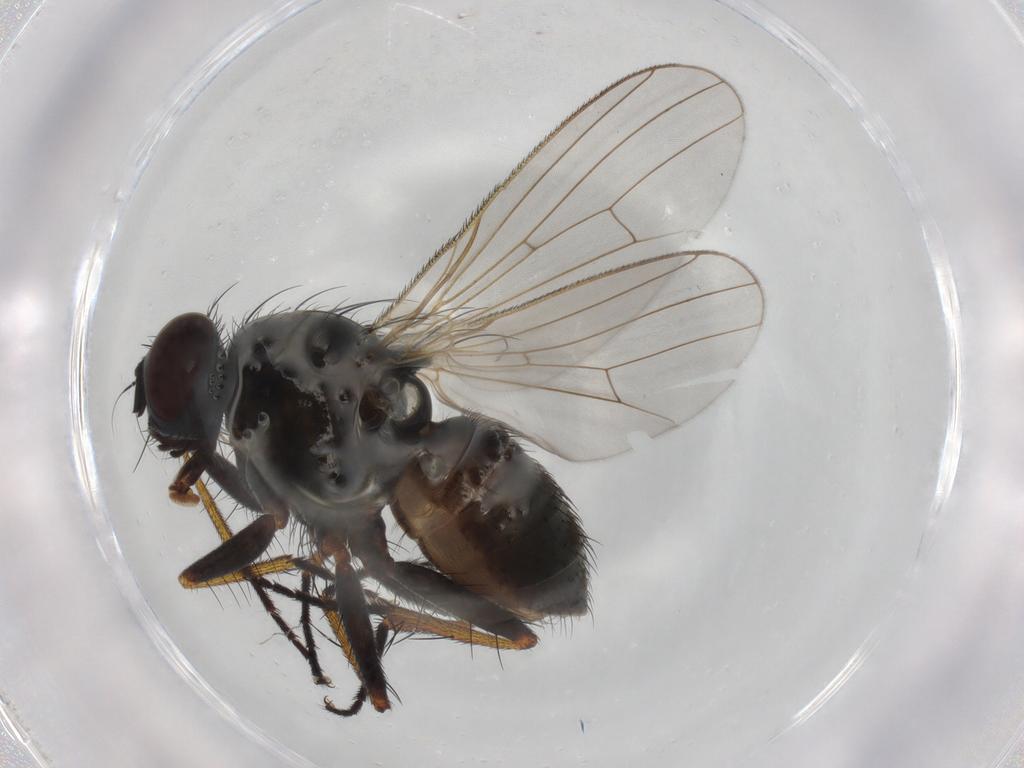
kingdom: Animalia
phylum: Arthropoda
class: Insecta
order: Diptera
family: Muscidae
